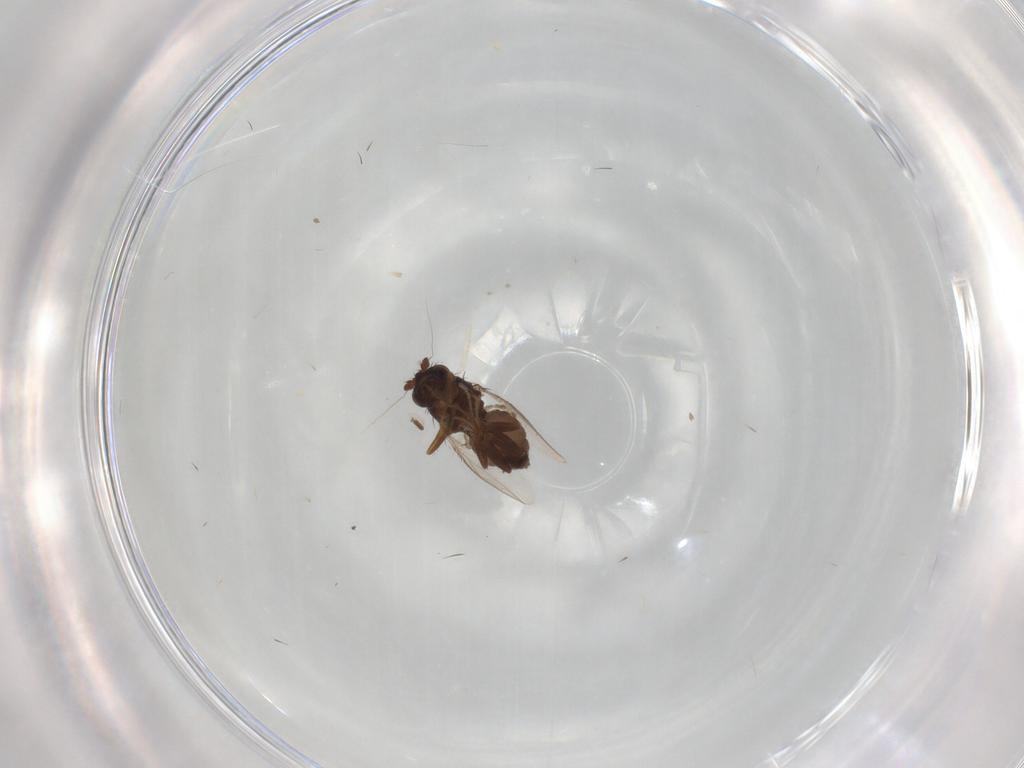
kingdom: Animalia
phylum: Arthropoda
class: Insecta
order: Diptera
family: Sphaeroceridae
